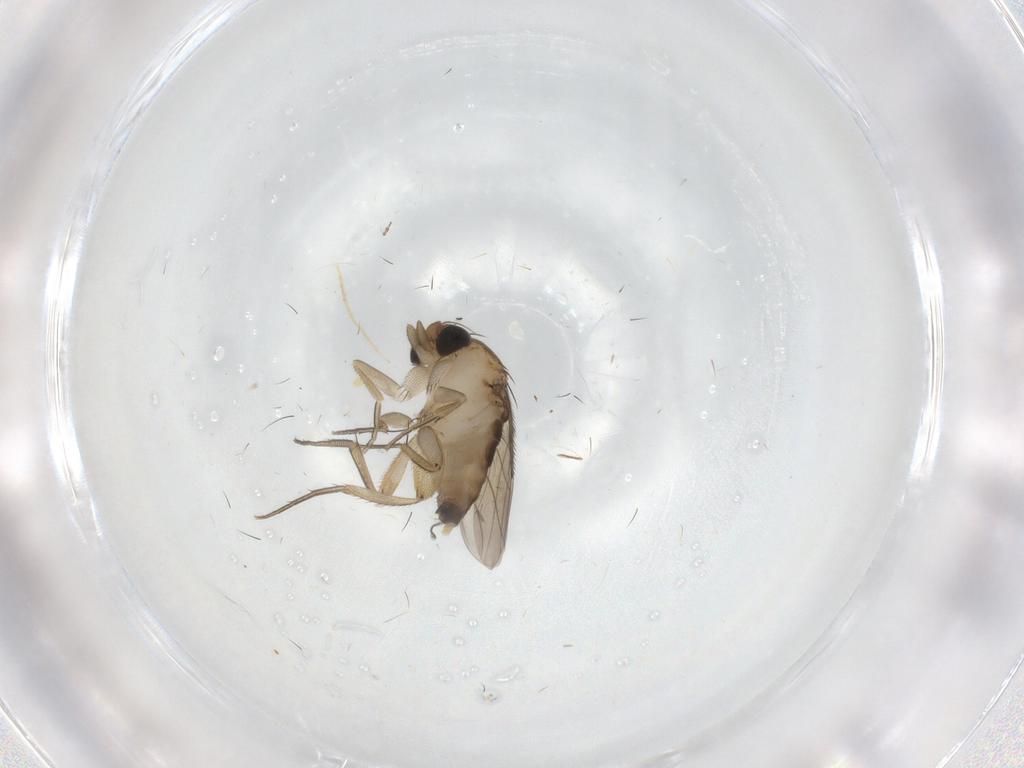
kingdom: Animalia
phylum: Arthropoda
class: Insecta
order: Diptera
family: Phoridae
